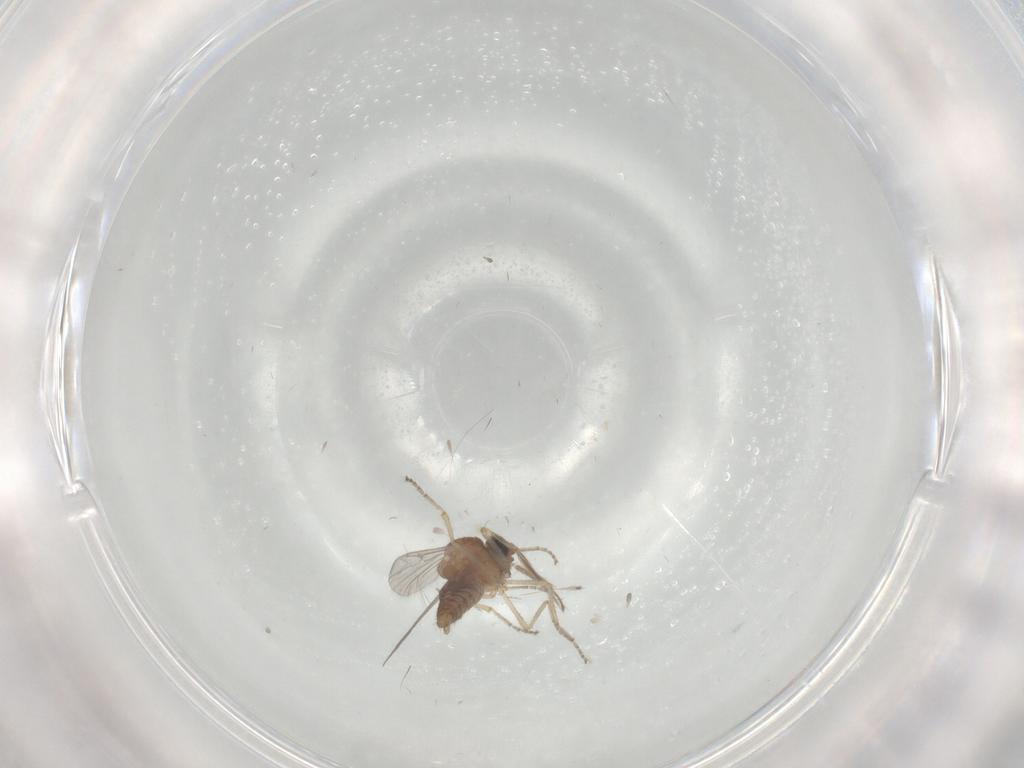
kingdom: Animalia
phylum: Arthropoda
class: Insecta
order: Diptera
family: Ceratopogonidae
